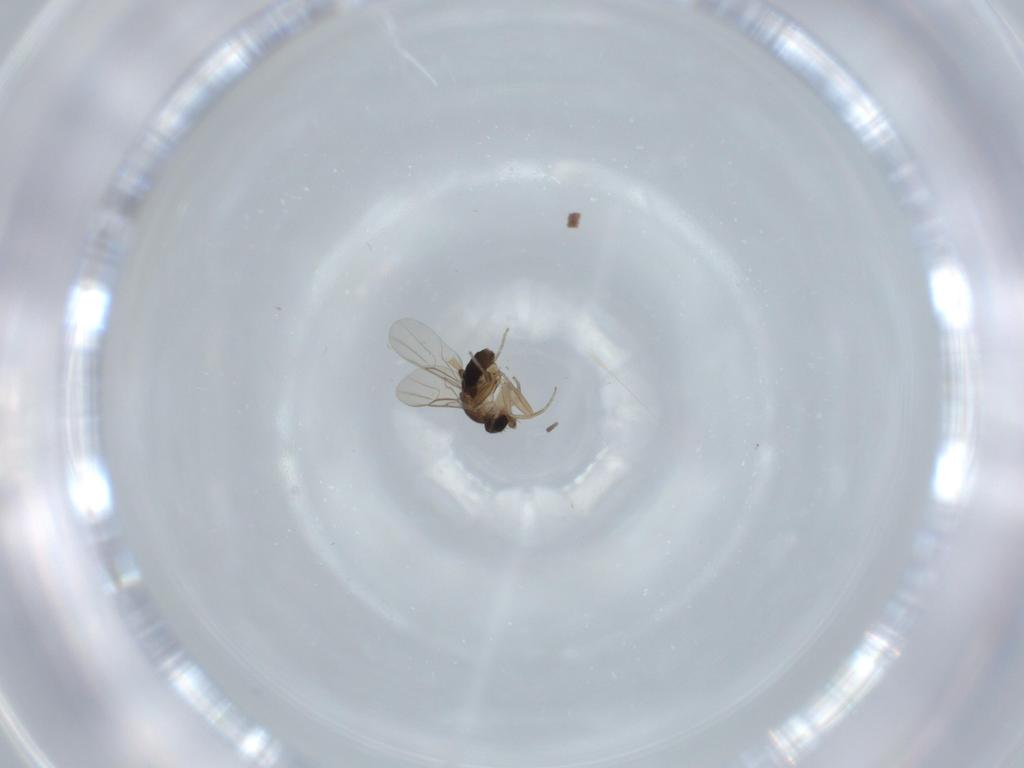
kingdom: Animalia
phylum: Arthropoda
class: Insecta
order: Diptera
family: Phoridae
